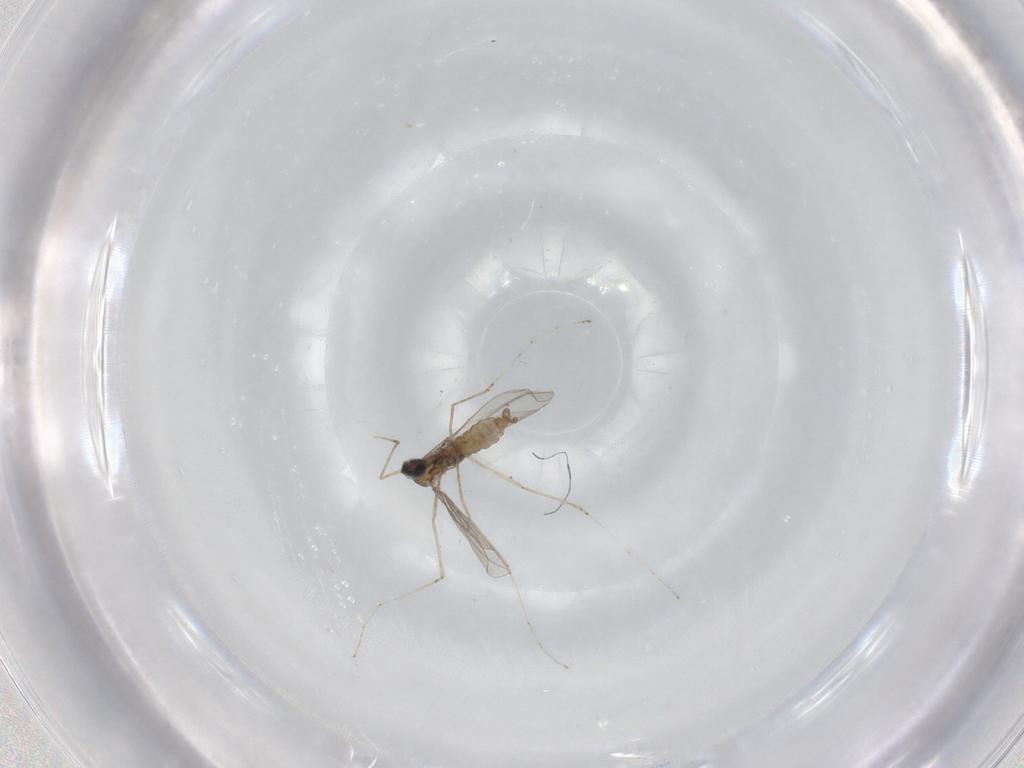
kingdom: Animalia
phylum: Arthropoda
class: Insecta
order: Diptera
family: Cecidomyiidae
